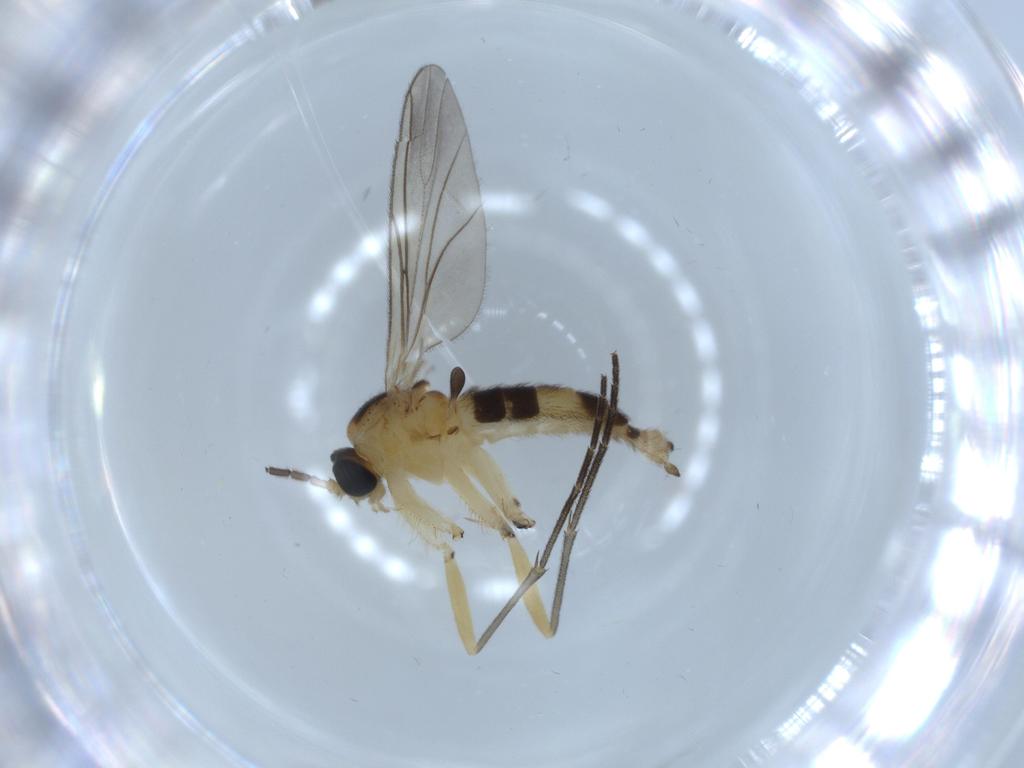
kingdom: Animalia
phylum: Arthropoda
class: Insecta
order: Diptera
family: Sciaridae
